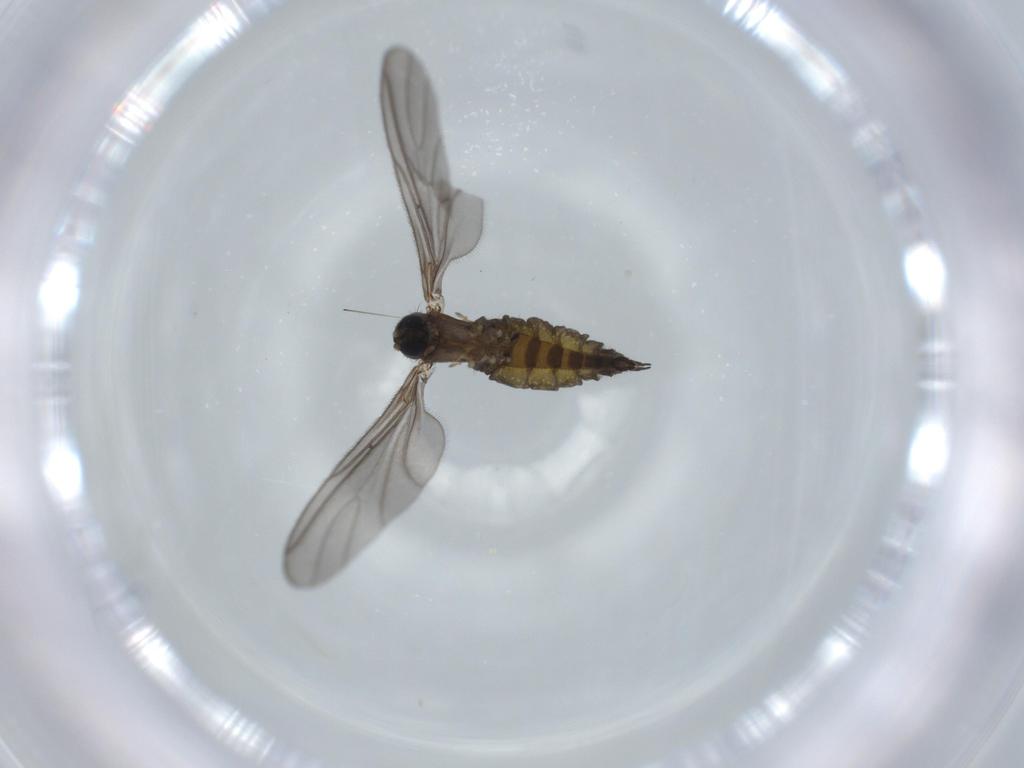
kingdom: Animalia
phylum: Arthropoda
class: Insecta
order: Diptera
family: Sciaridae
